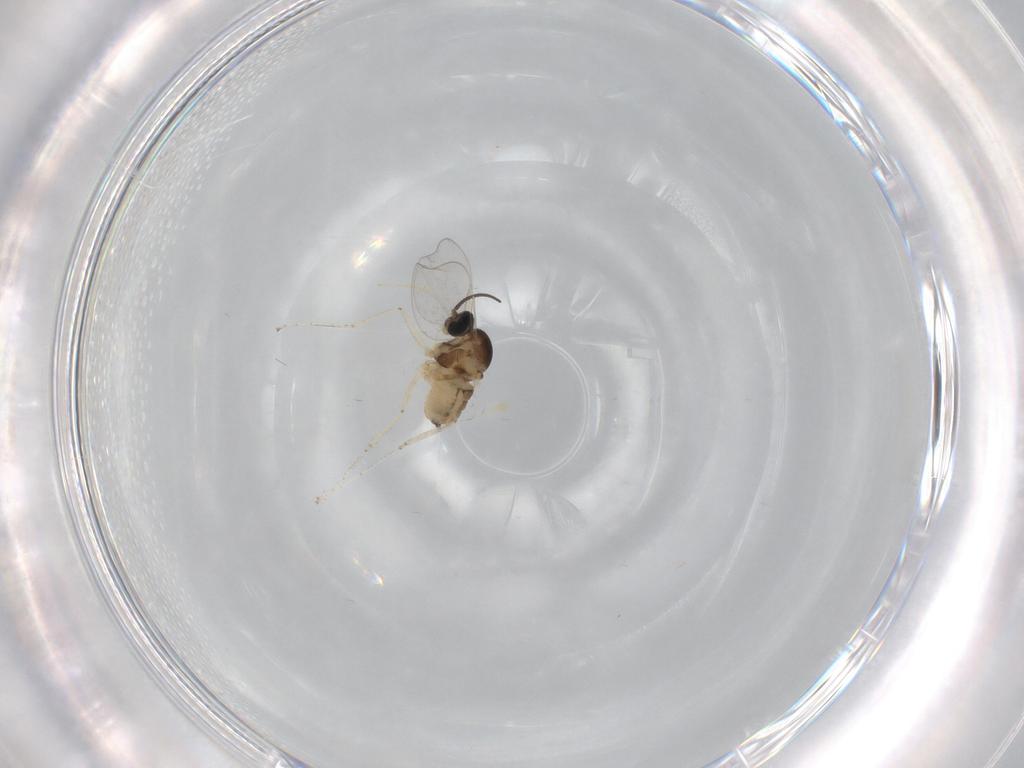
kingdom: Animalia
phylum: Arthropoda
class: Insecta
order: Diptera
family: Cecidomyiidae
